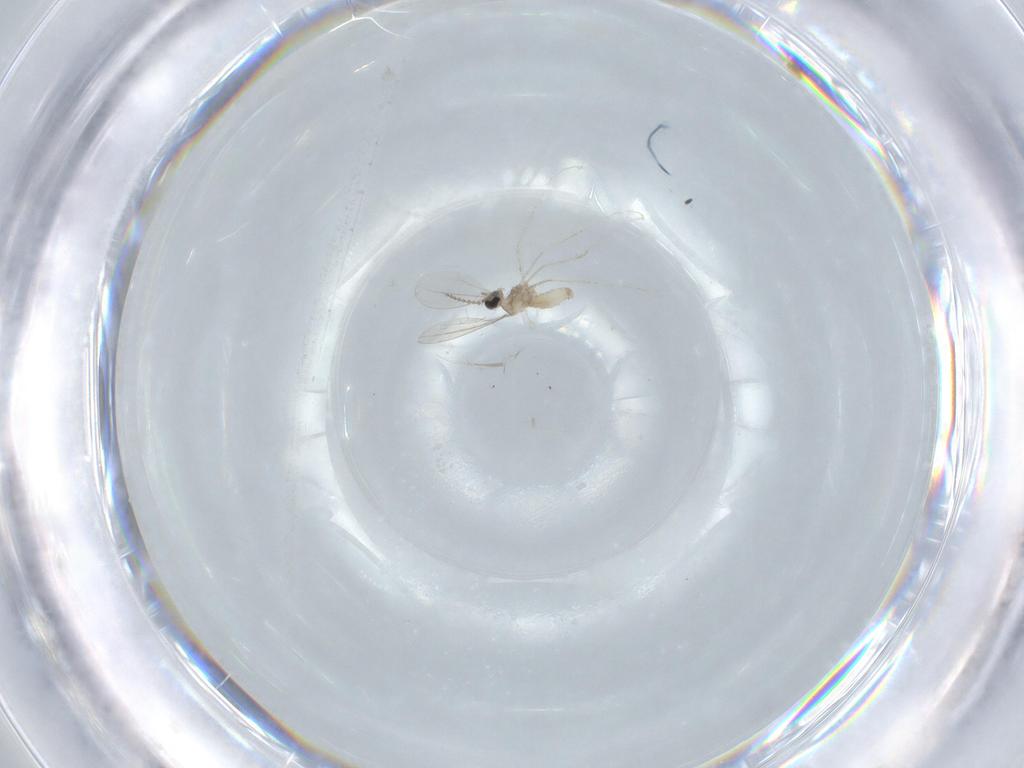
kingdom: Animalia
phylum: Arthropoda
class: Insecta
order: Diptera
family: Cecidomyiidae
